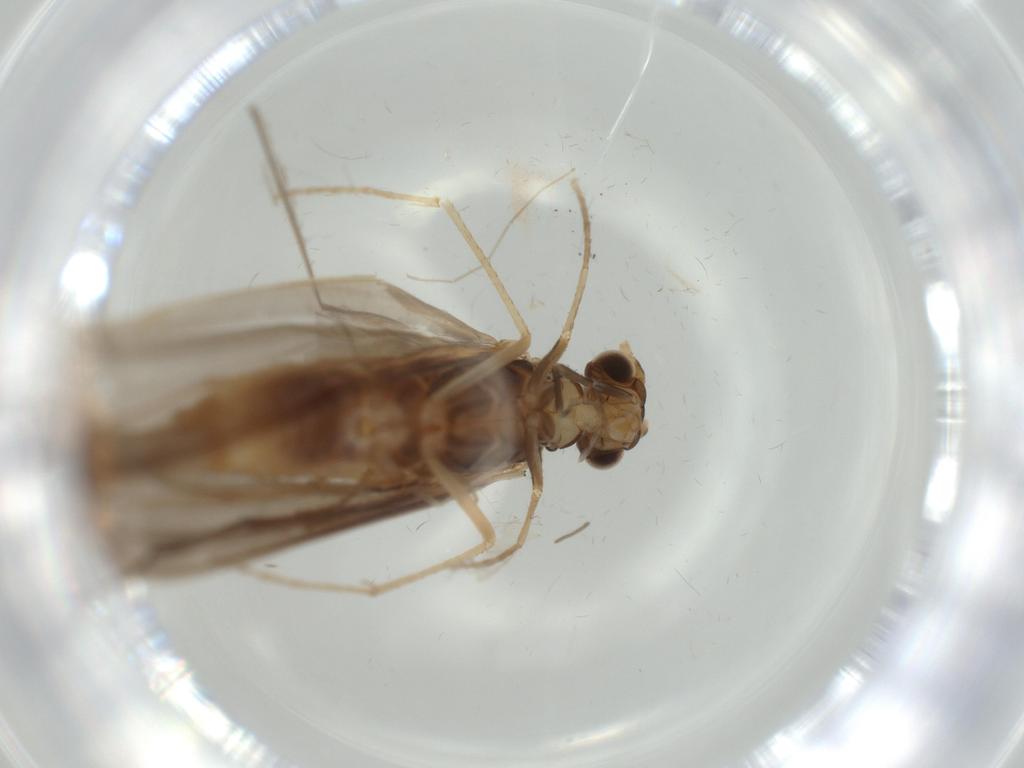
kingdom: Animalia
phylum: Arthropoda
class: Insecta
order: Trichoptera
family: Leptoceridae
